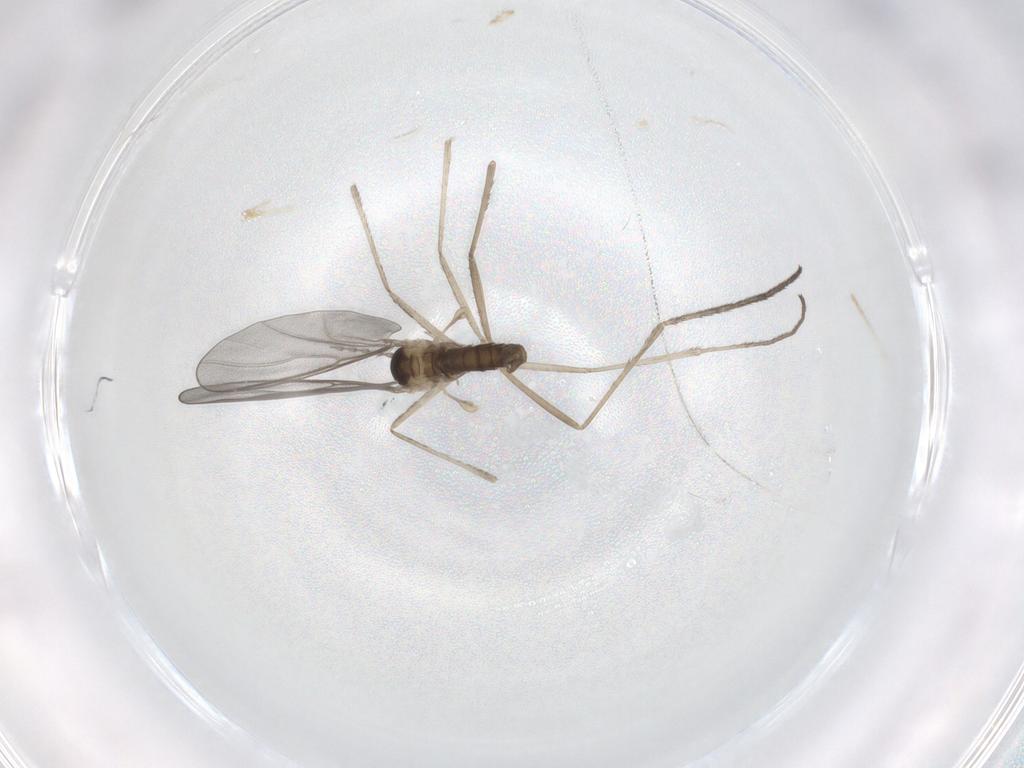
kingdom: Animalia
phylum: Arthropoda
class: Insecta
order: Diptera
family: Cecidomyiidae
